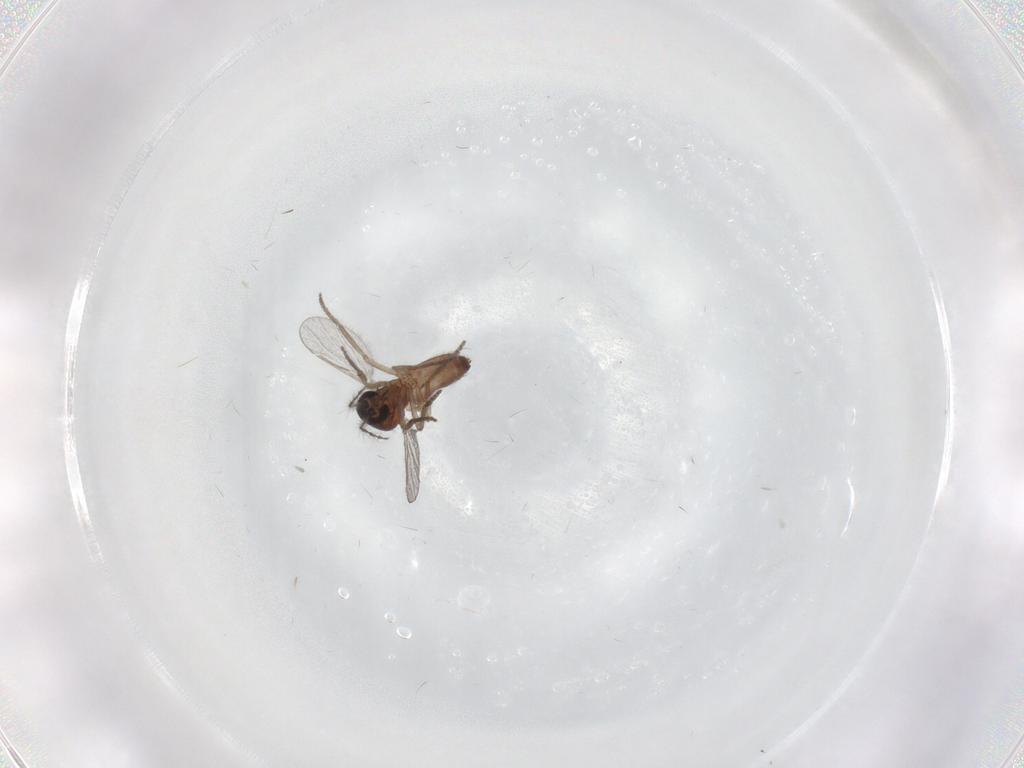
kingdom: Animalia
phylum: Arthropoda
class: Insecta
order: Diptera
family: Ceratopogonidae
